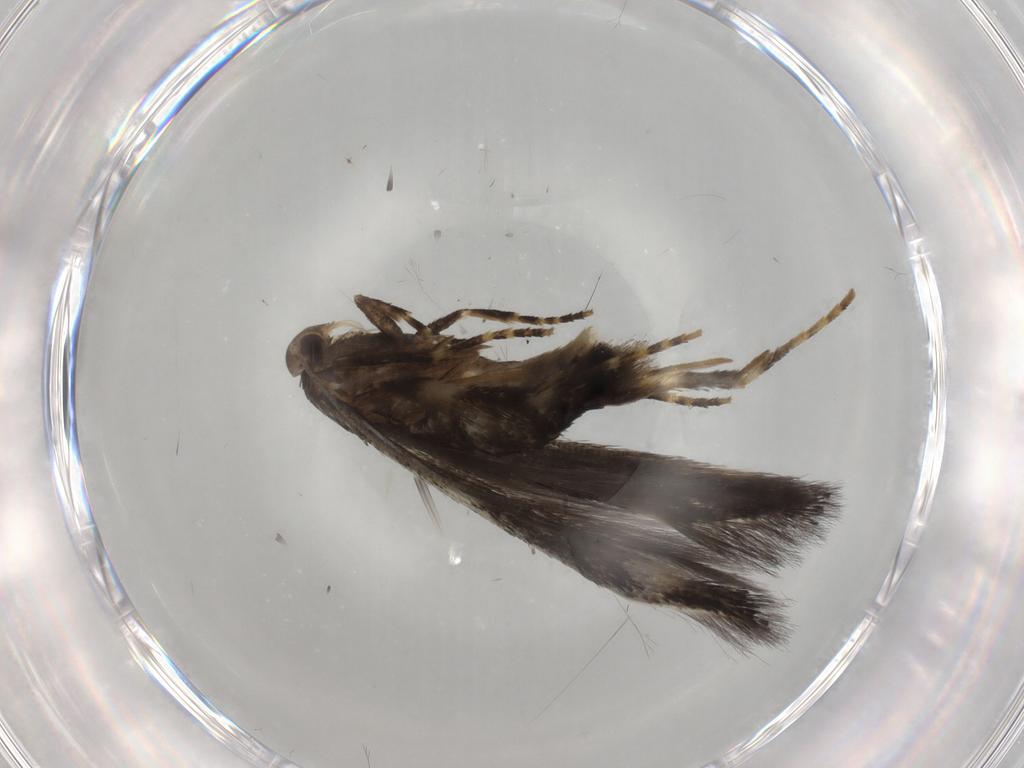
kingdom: Animalia
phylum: Arthropoda
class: Insecta
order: Lepidoptera
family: Elachistidae
